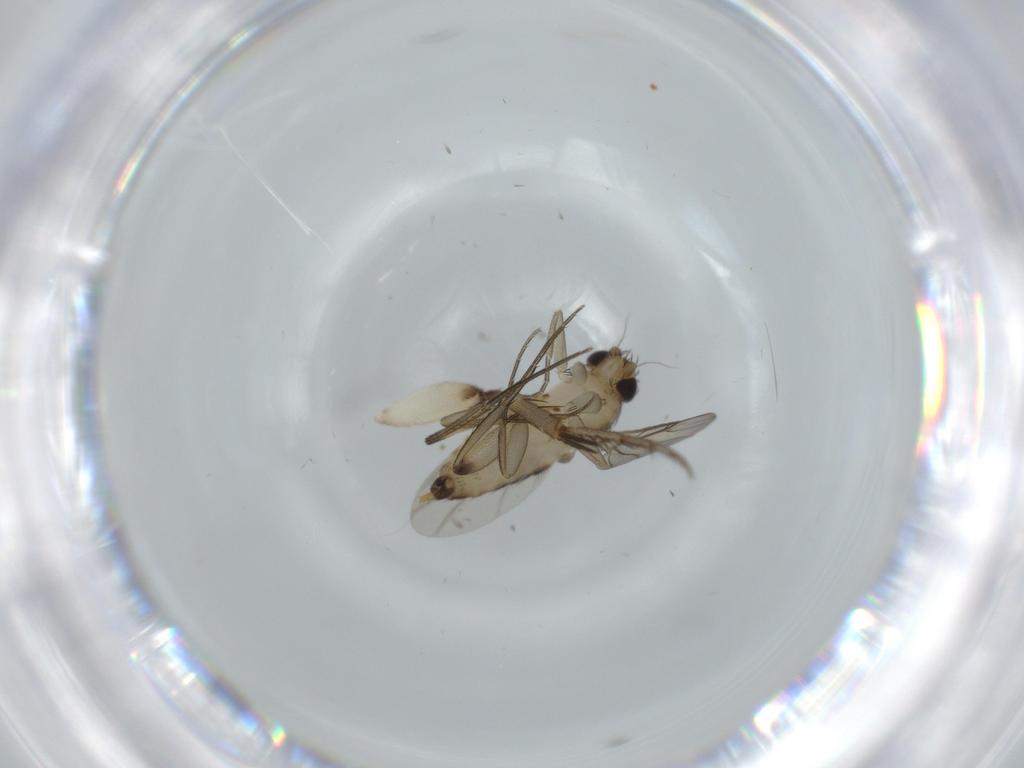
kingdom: Animalia
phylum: Arthropoda
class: Insecta
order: Diptera
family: Phoridae
